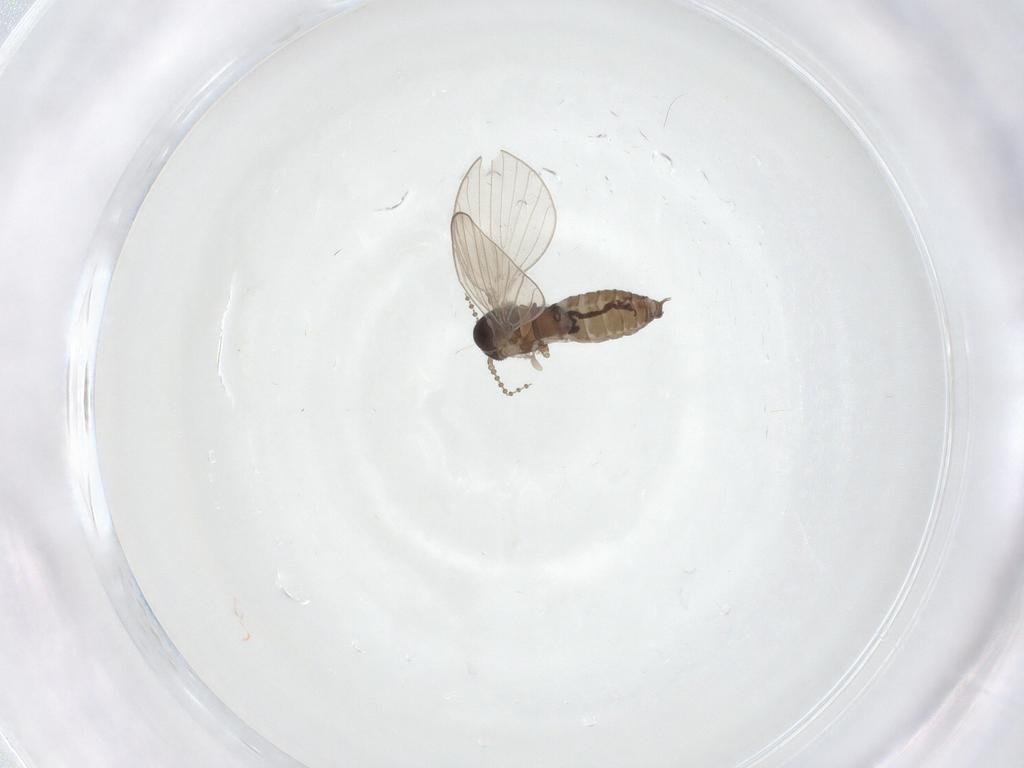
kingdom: Animalia
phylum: Arthropoda
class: Insecta
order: Diptera
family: Psychodidae
